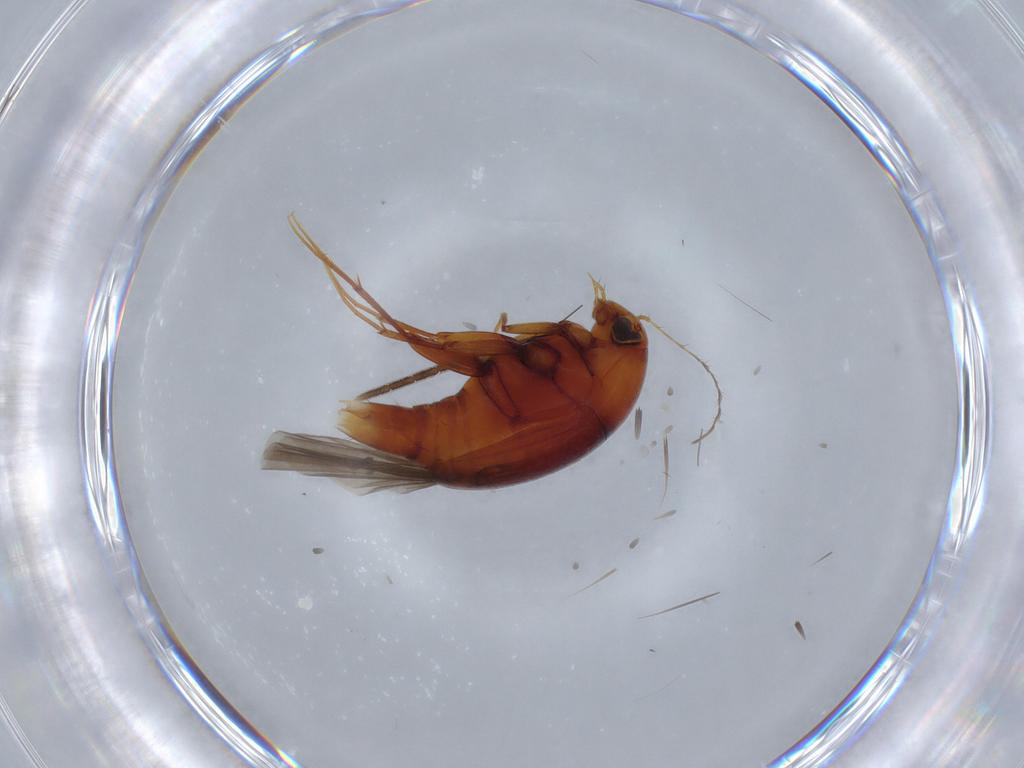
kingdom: Animalia
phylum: Arthropoda
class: Insecta
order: Coleoptera
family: Staphylinidae
